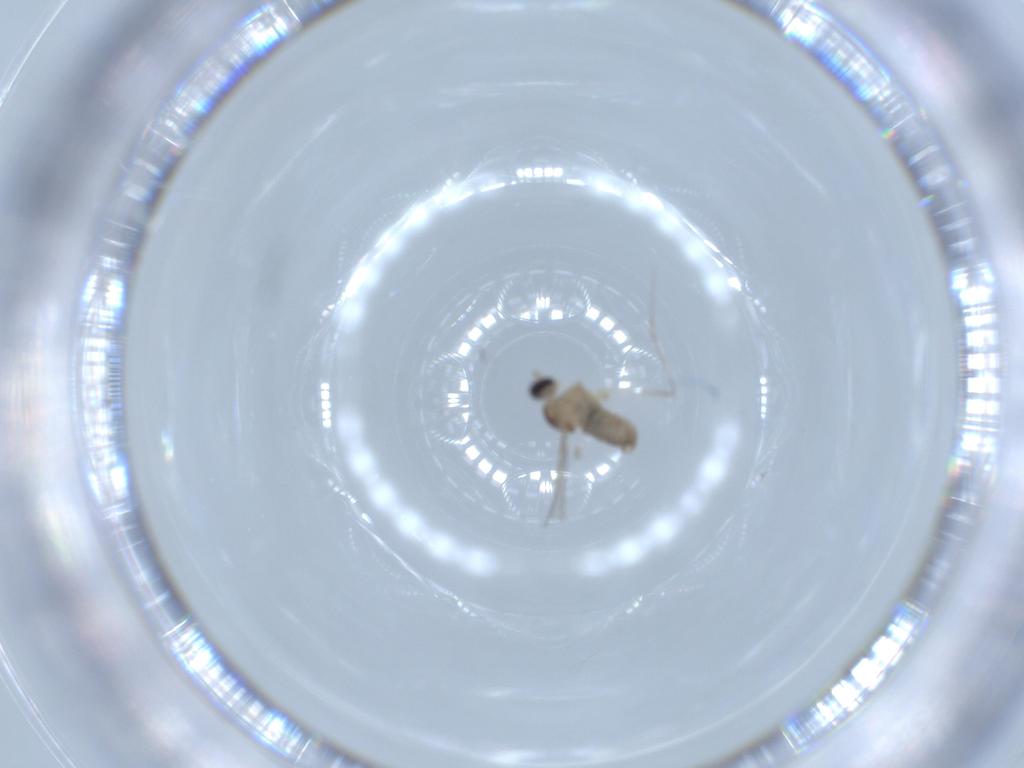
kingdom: Animalia
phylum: Arthropoda
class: Insecta
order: Diptera
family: Cecidomyiidae
